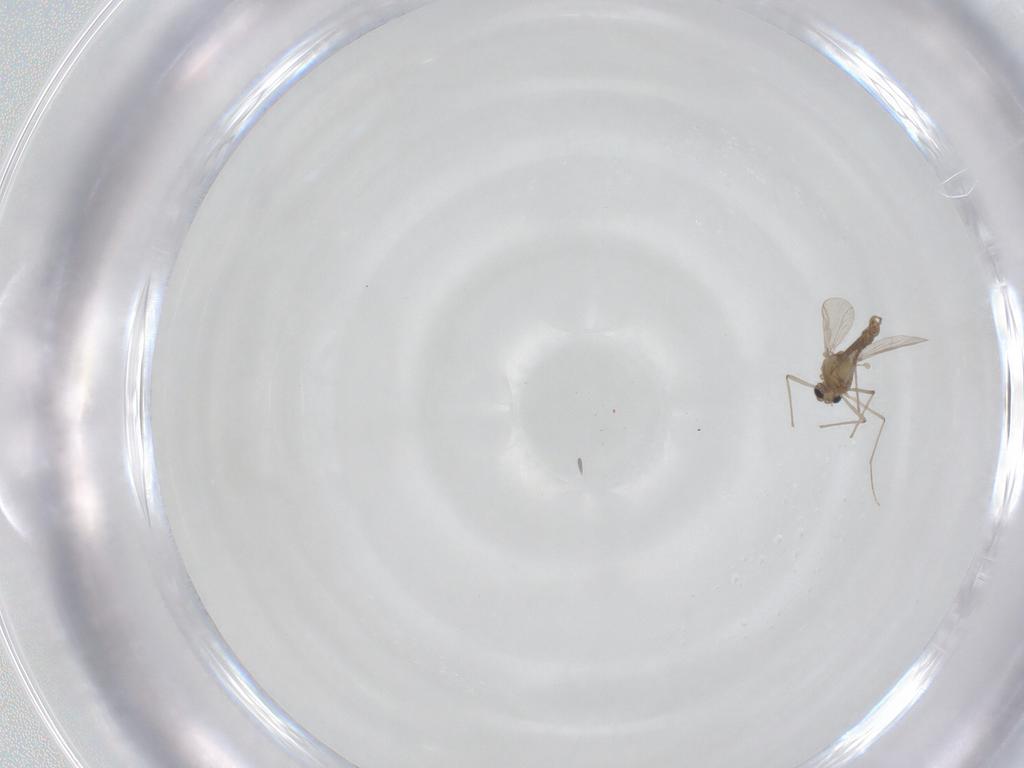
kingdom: Animalia
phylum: Arthropoda
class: Insecta
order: Diptera
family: Chironomidae
